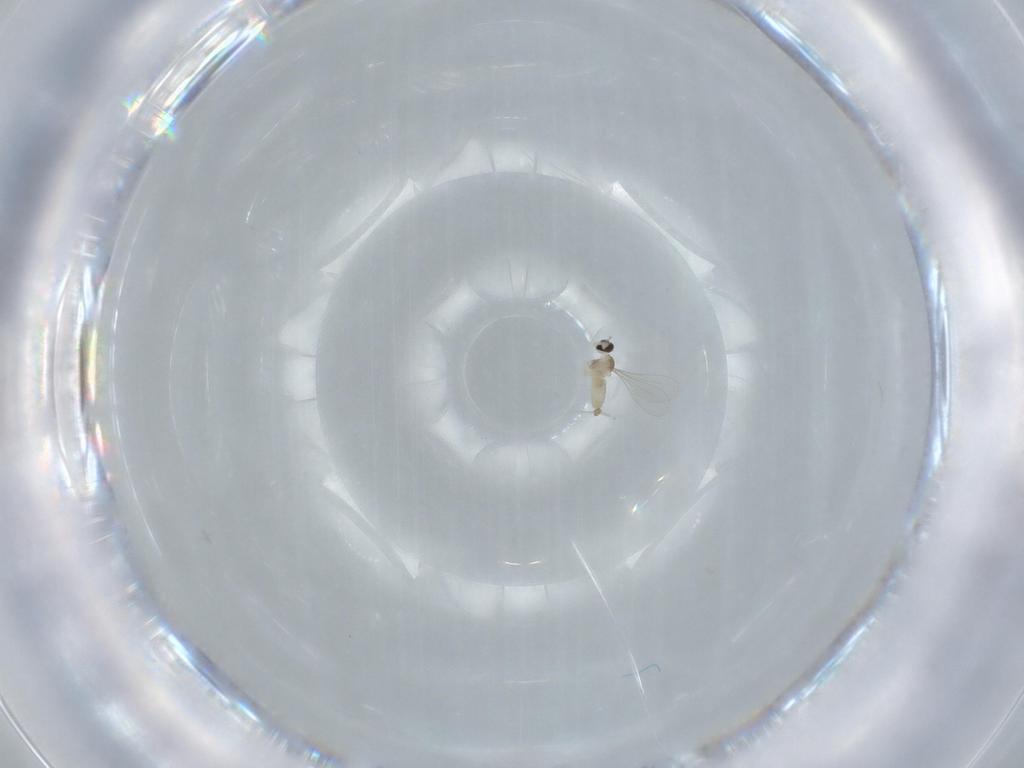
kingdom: Animalia
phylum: Arthropoda
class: Insecta
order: Diptera
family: Cecidomyiidae
